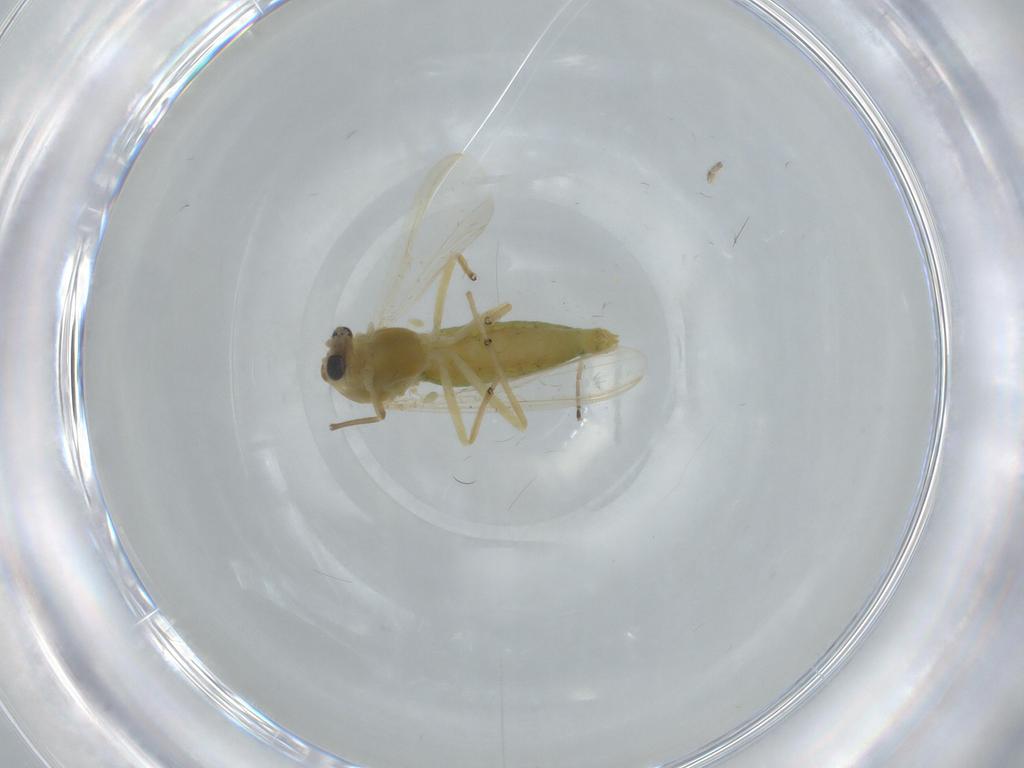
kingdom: Animalia
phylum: Arthropoda
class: Insecta
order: Diptera
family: Chironomidae
